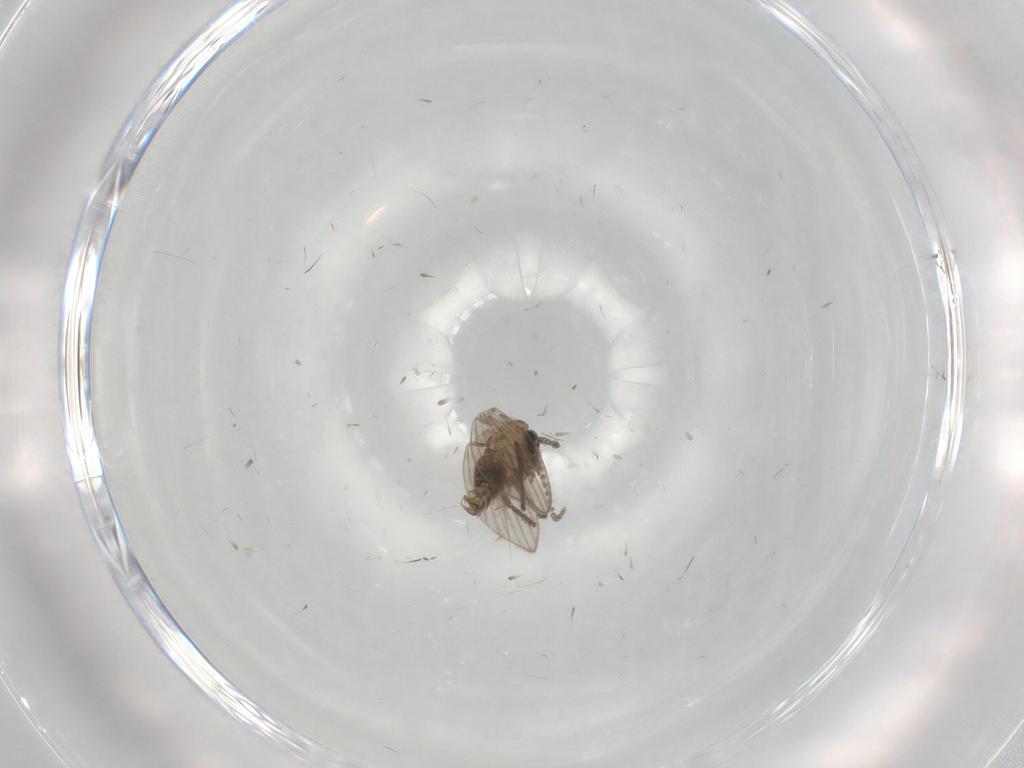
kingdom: Animalia
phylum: Arthropoda
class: Insecta
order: Diptera
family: Cecidomyiidae
